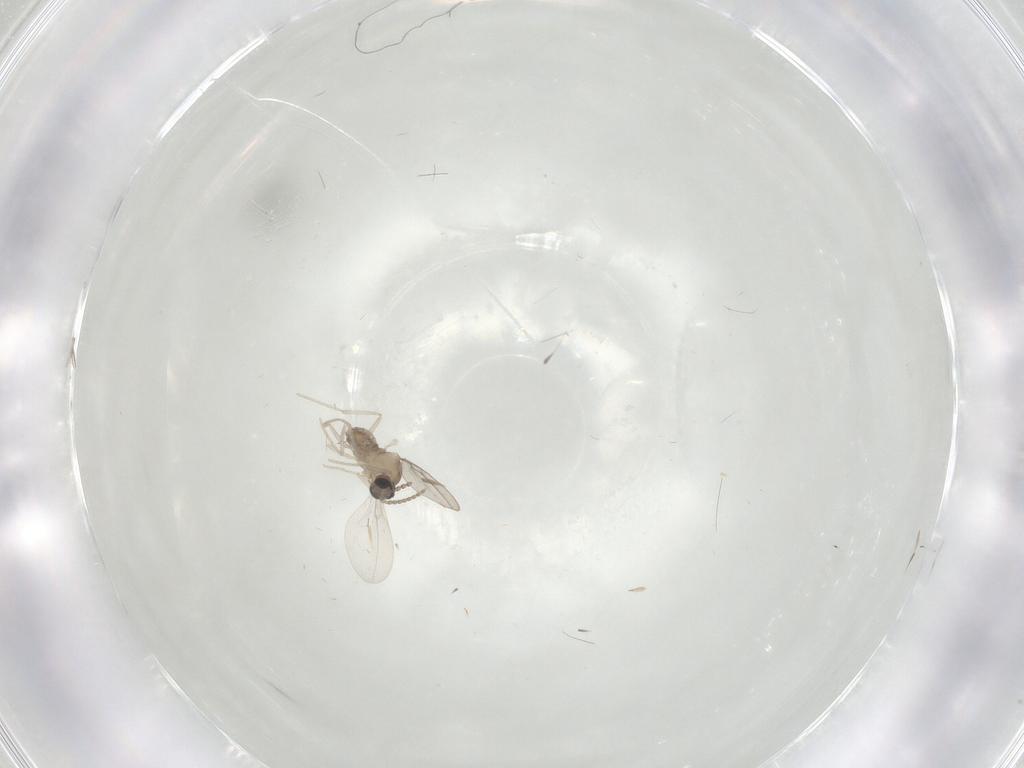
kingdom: Animalia
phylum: Arthropoda
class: Insecta
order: Diptera
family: Cecidomyiidae
